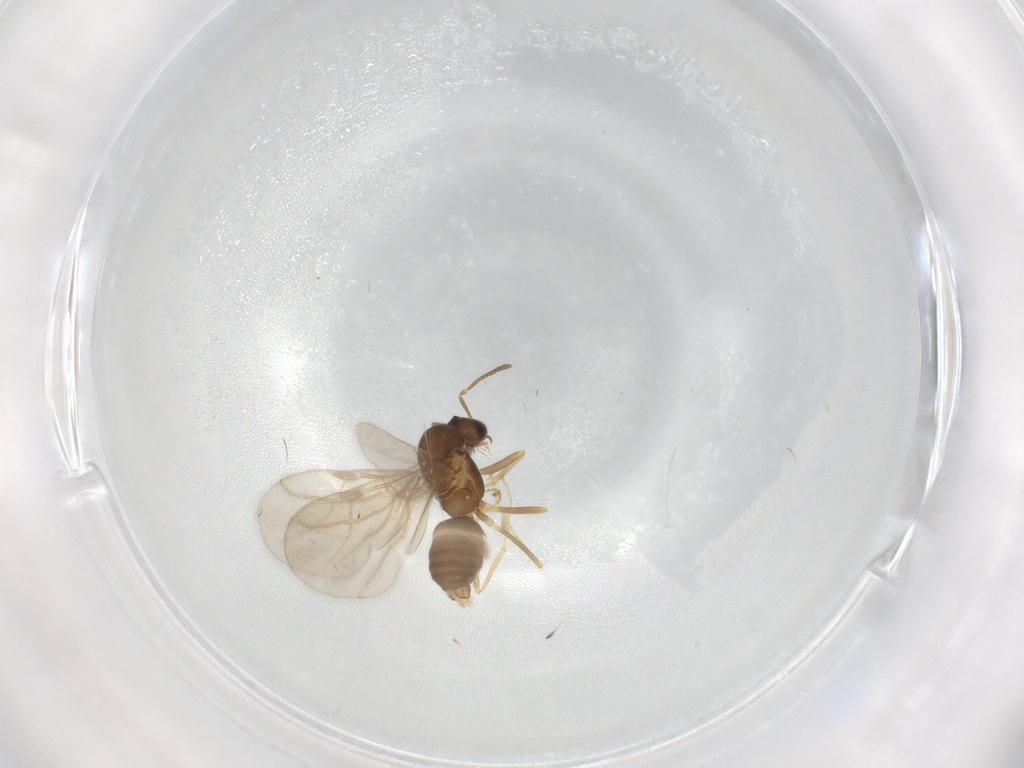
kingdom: Animalia
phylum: Arthropoda
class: Insecta
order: Hymenoptera
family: Formicidae
